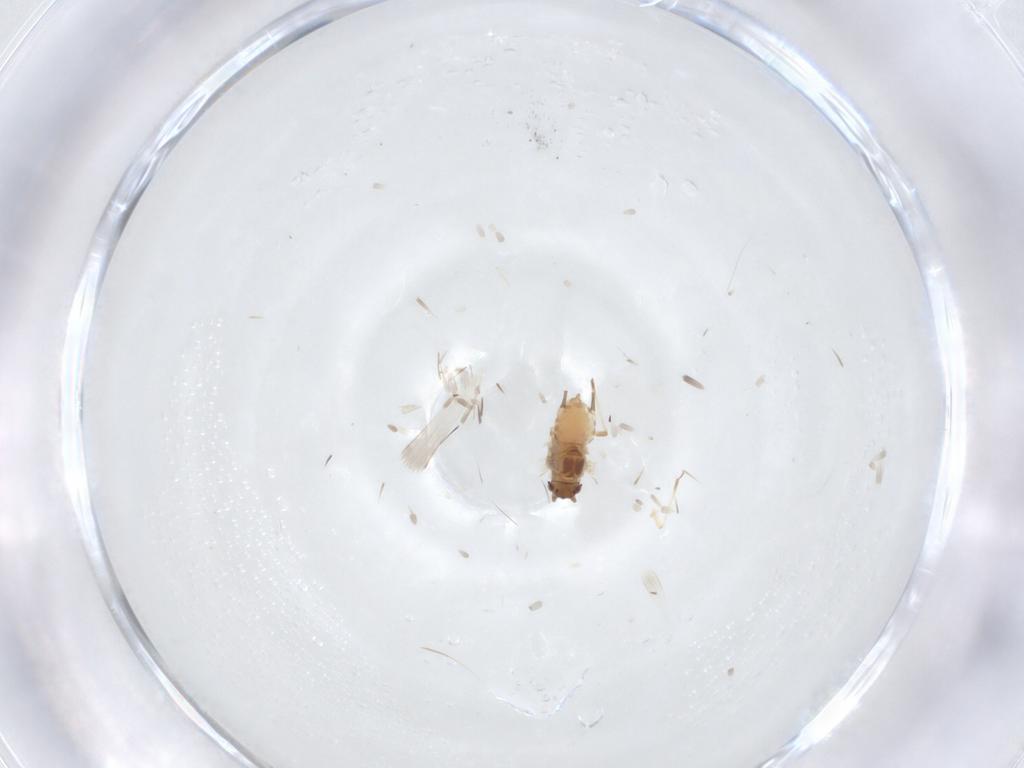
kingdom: Animalia
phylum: Arthropoda
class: Insecta
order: Hemiptera
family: Aphididae
